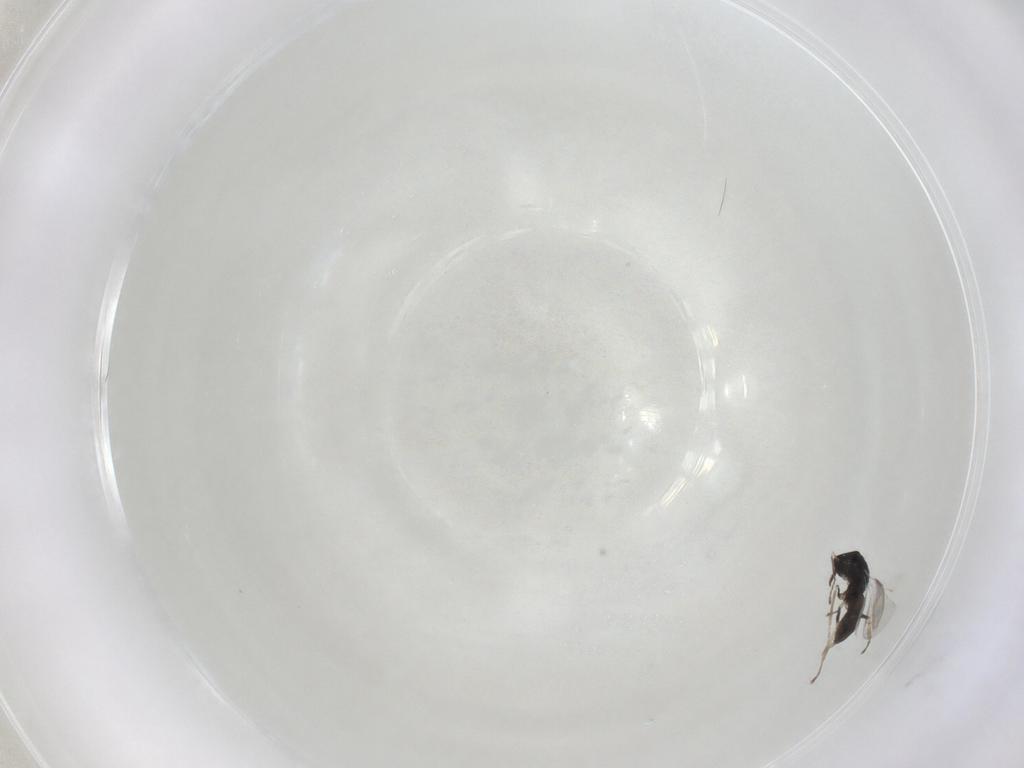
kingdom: Animalia
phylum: Arthropoda
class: Insecta
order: Hymenoptera
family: Eulophidae
